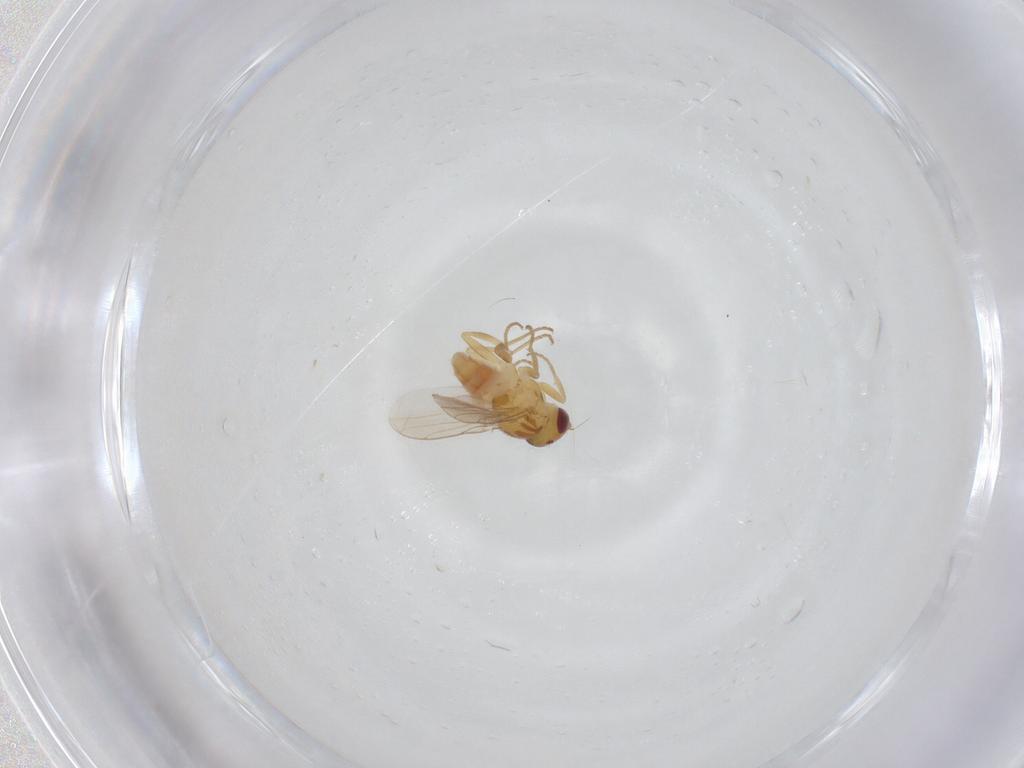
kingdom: Animalia
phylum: Arthropoda
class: Insecta
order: Diptera
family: Chloropidae
